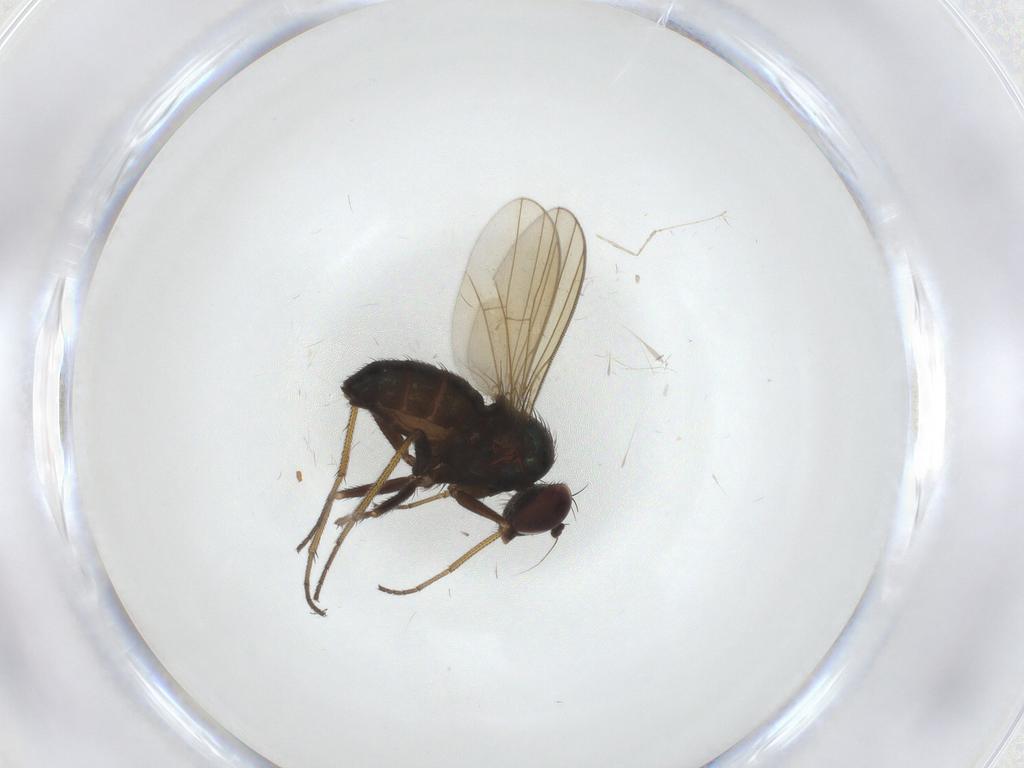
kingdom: Animalia
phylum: Arthropoda
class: Insecta
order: Diptera
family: Dolichopodidae
